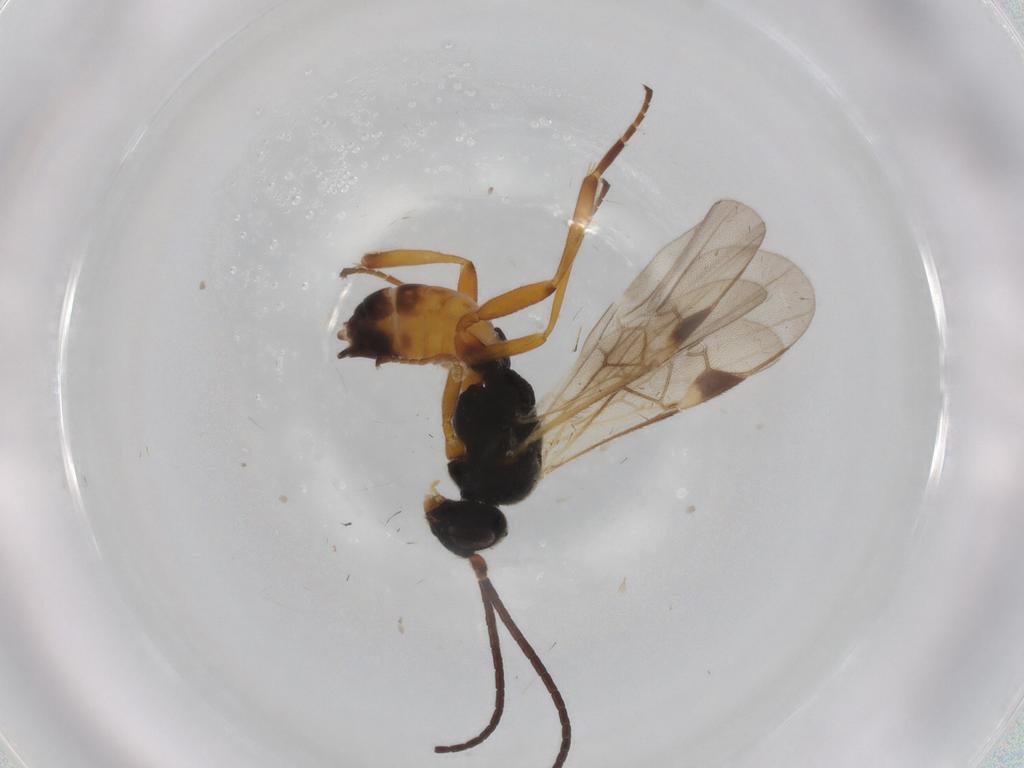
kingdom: Animalia
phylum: Arthropoda
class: Insecta
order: Hymenoptera
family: Braconidae
